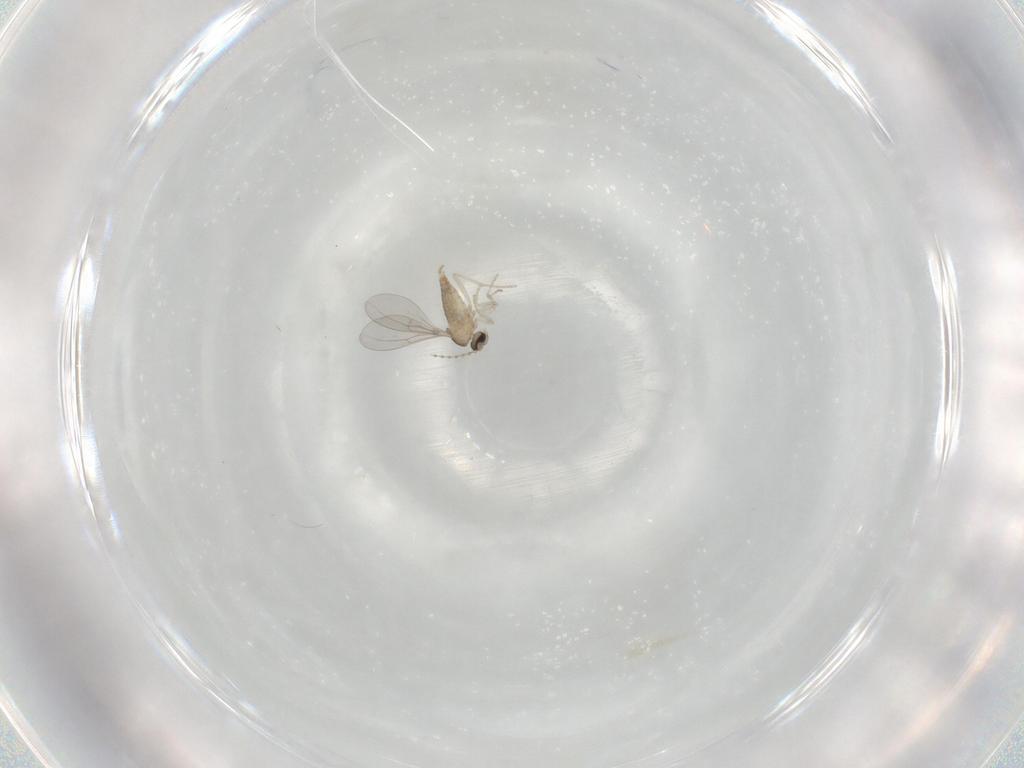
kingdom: Animalia
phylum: Arthropoda
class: Insecta
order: Diptera
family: Cecidomyiidae
